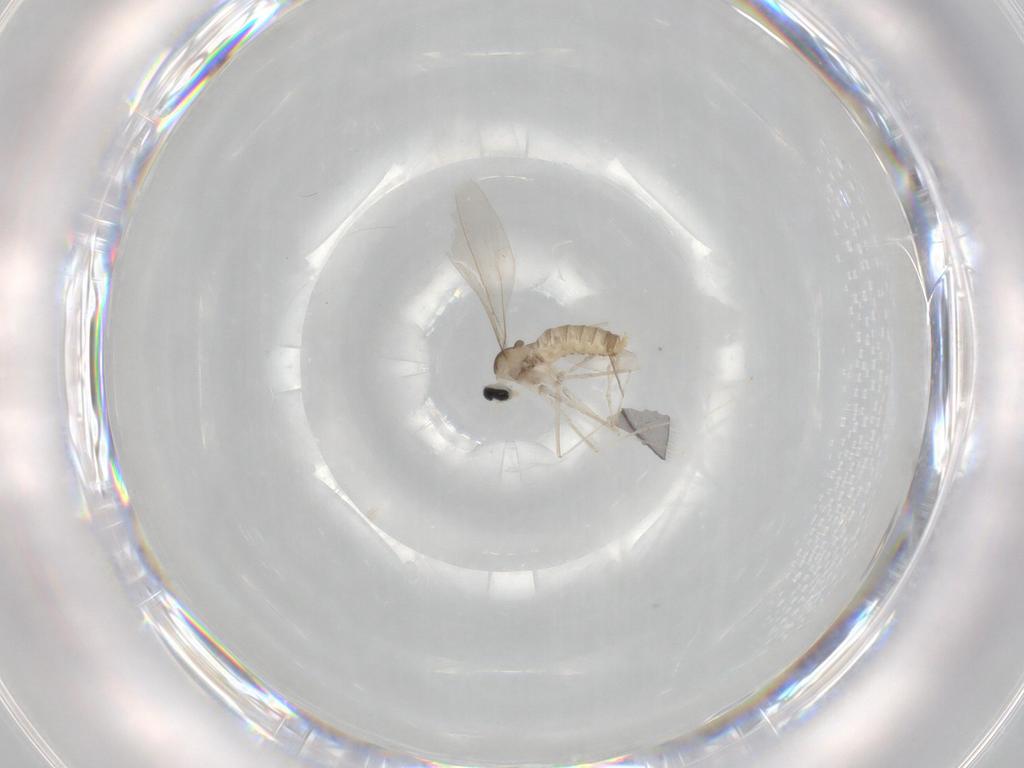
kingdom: Animalia
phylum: Arthropoda
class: Insecta
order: Diptera
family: Cecidomyiidae
